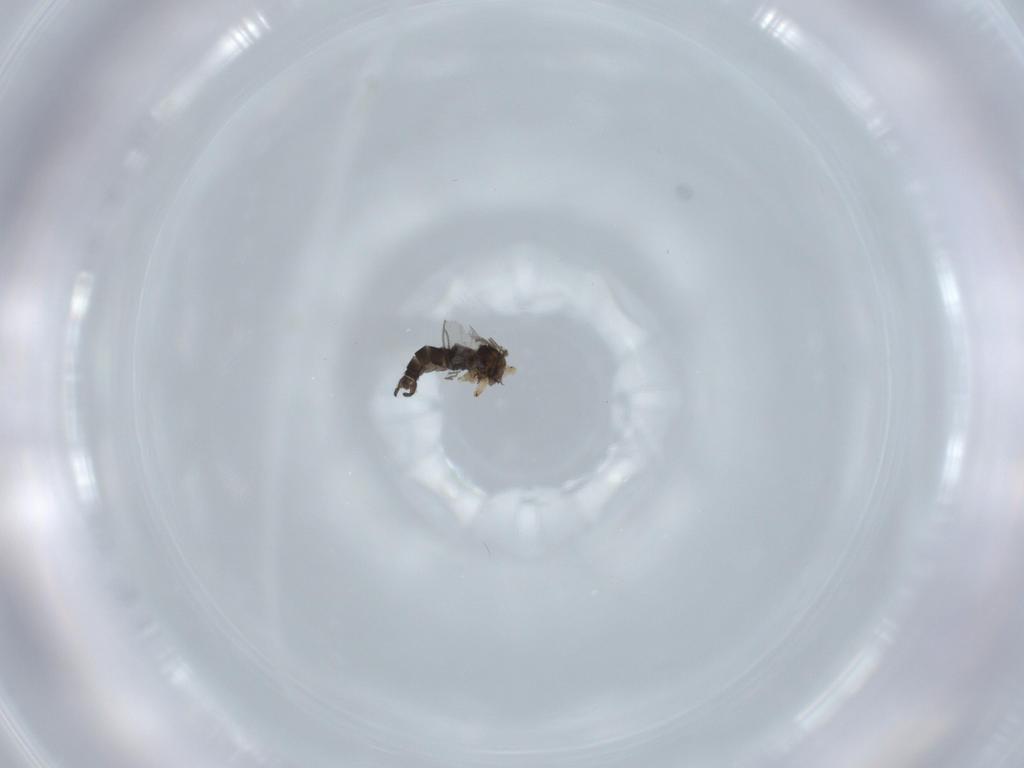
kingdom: Animalia
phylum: Arthropoda
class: Insecta
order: Diptera
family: Sciaridae
